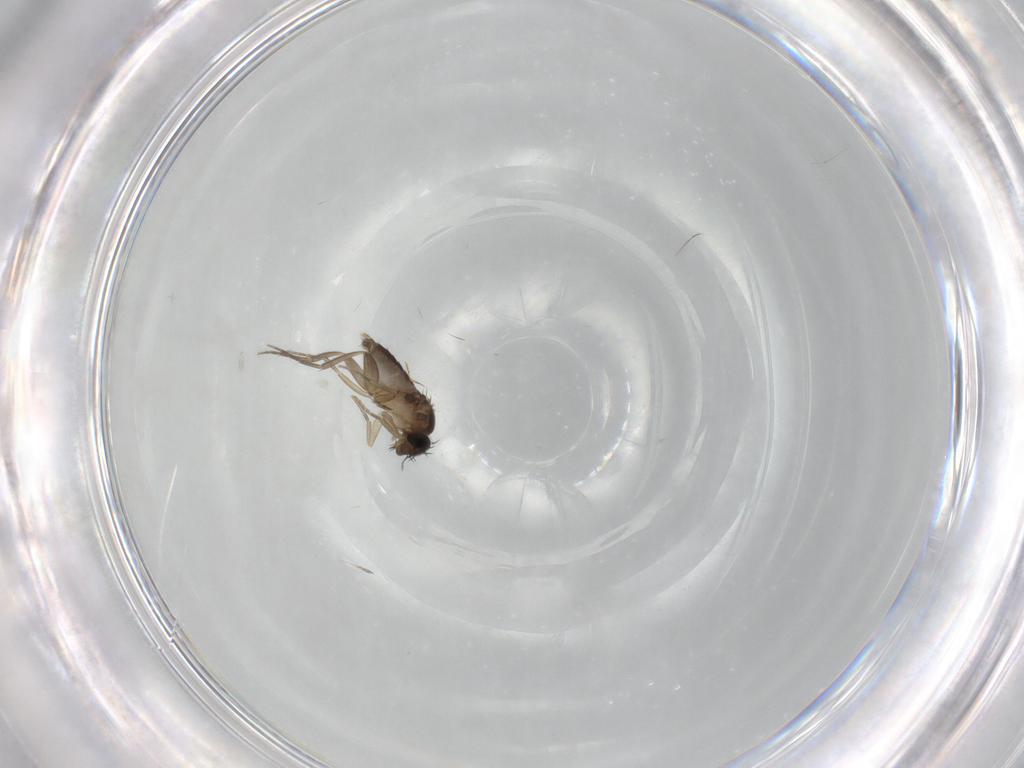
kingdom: Animalia
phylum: Arthropoda
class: Insecta
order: Diptera
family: Phoridae
